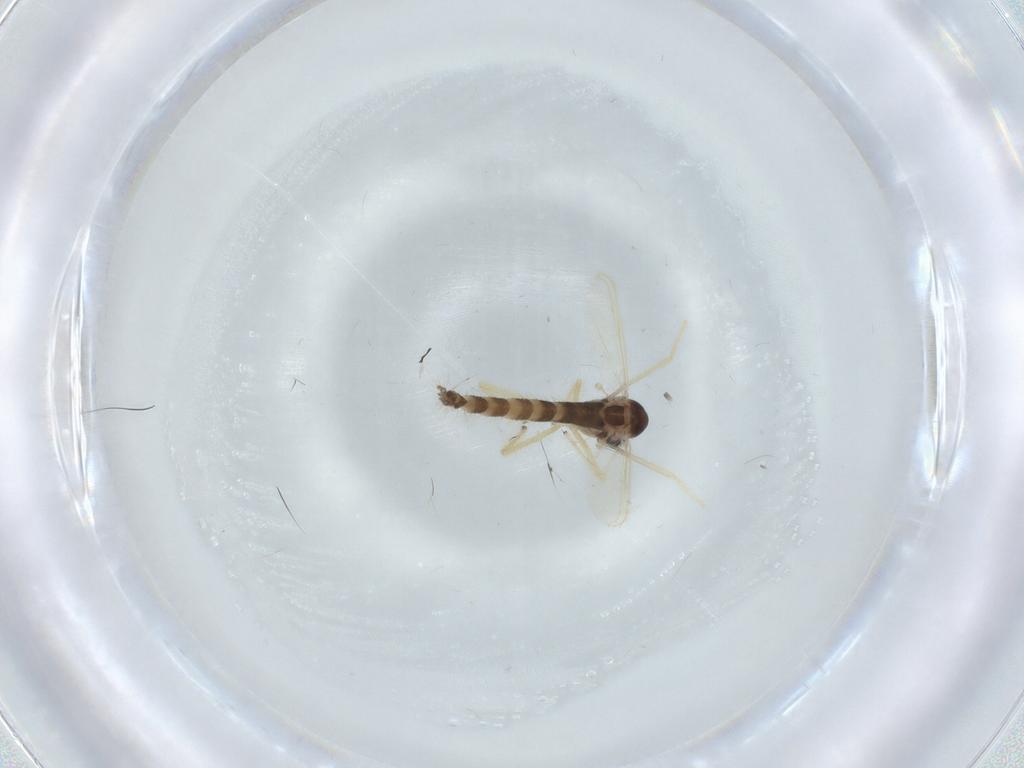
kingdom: Animalia
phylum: Arthropoda
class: Insecta
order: Diptera
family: Chironomidae
